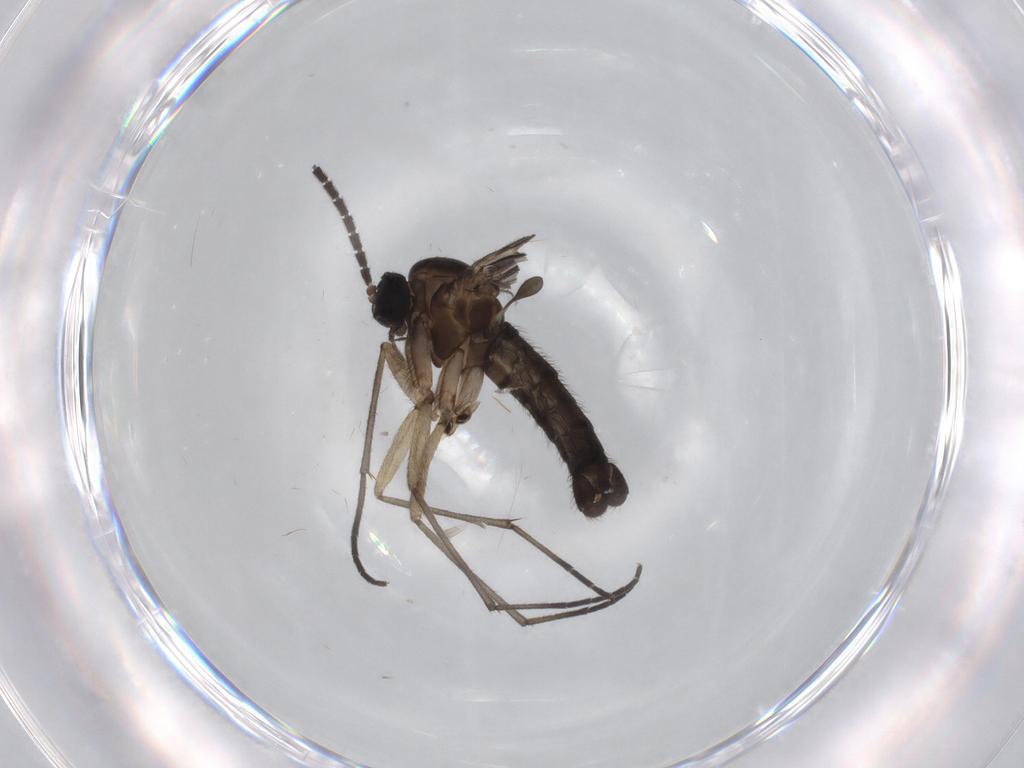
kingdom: Animalia
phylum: Arthropoda
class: Insecta
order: Diptera
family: Sciaridae
